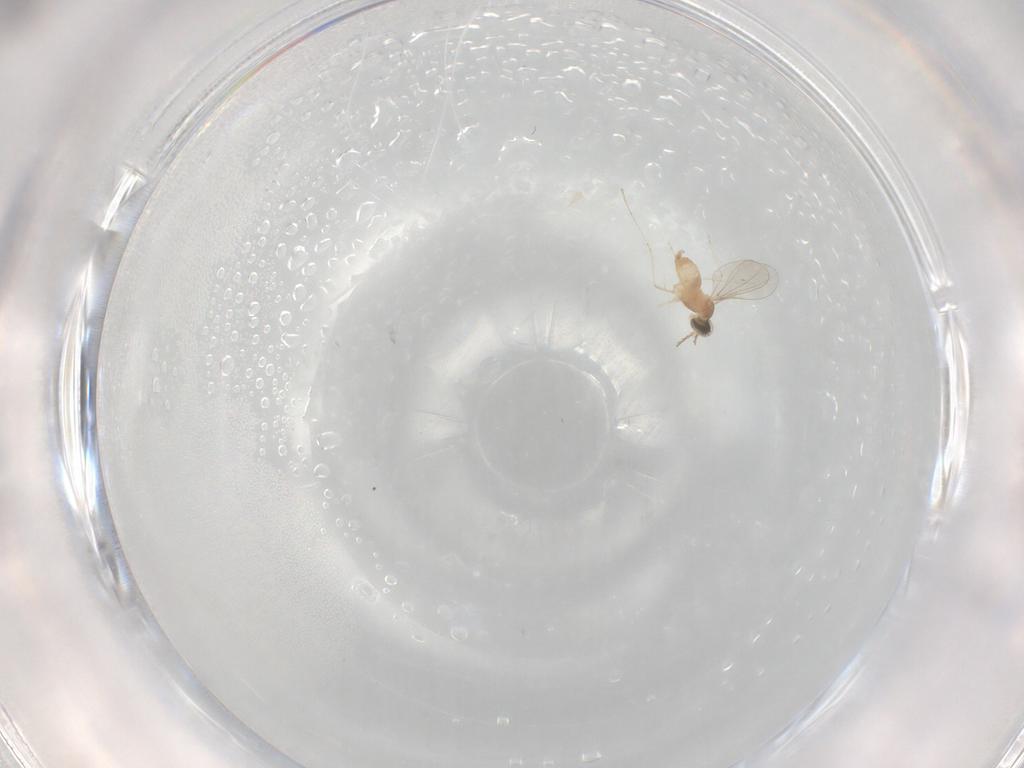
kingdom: Animalia
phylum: Arthropoda
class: Insecta
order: Diptera
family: Cecidomyiidae
